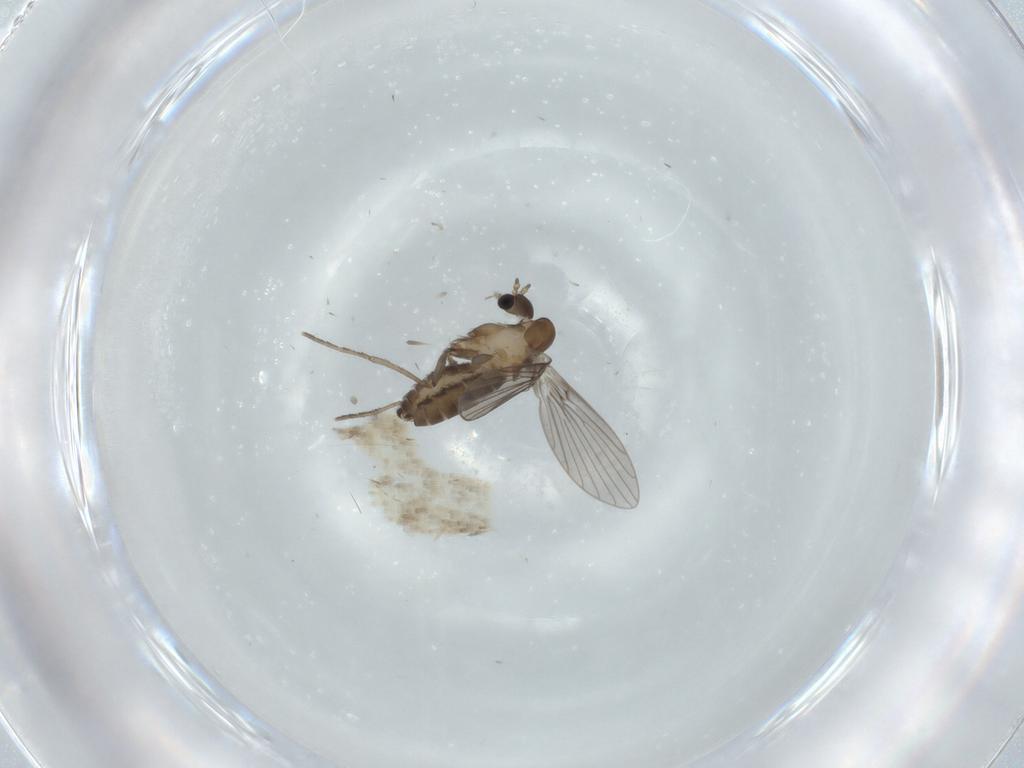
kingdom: Animalia
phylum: Arthropoda
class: Insecta
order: Diptera
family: Psychodidae
